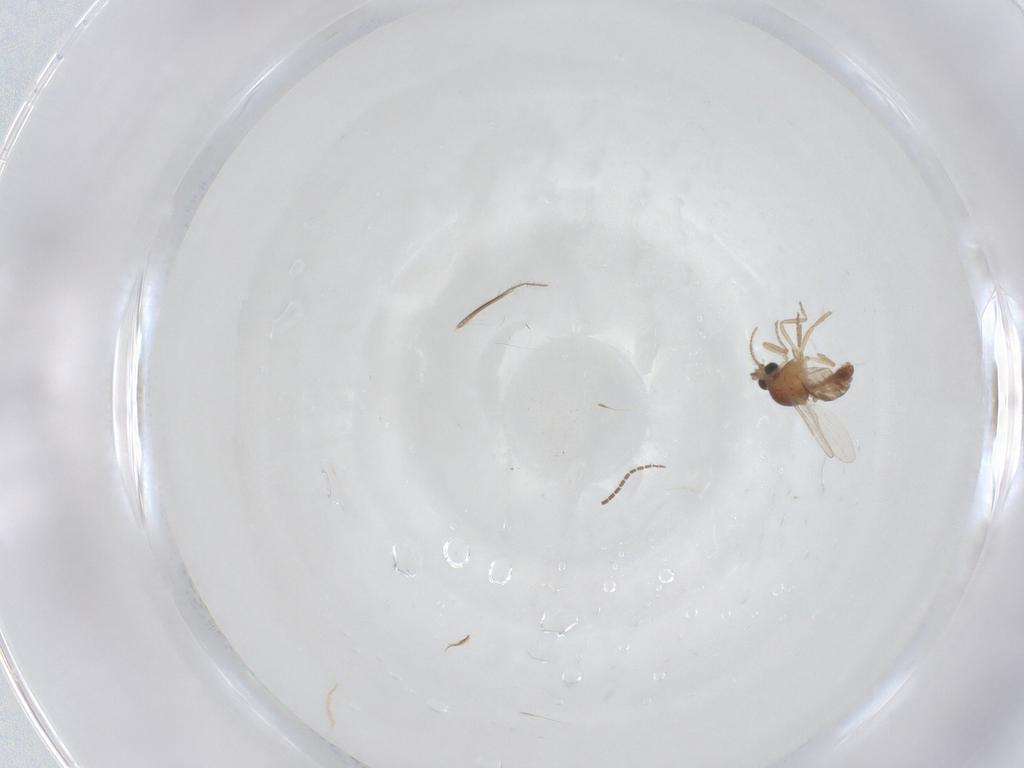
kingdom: Animalia
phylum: Arthropoda
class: Insecta
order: Diptera
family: Ceratopogonidae
